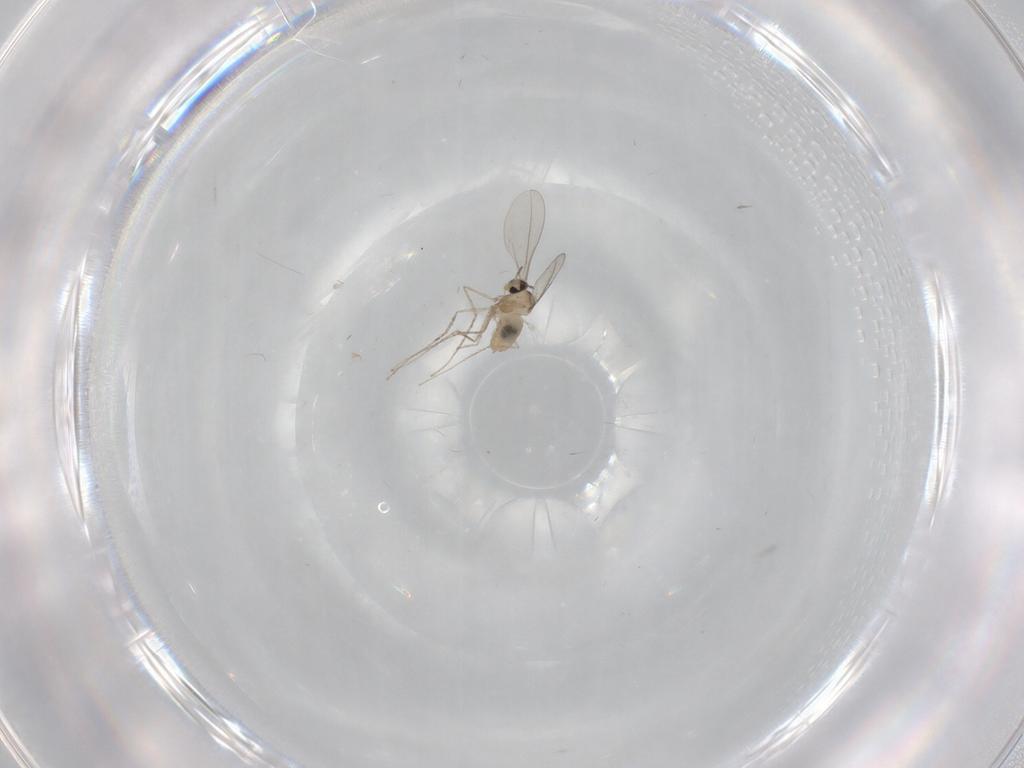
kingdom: Animalia
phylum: Arthropoda
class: Insecta
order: Diptera
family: Cecidomyiidae
